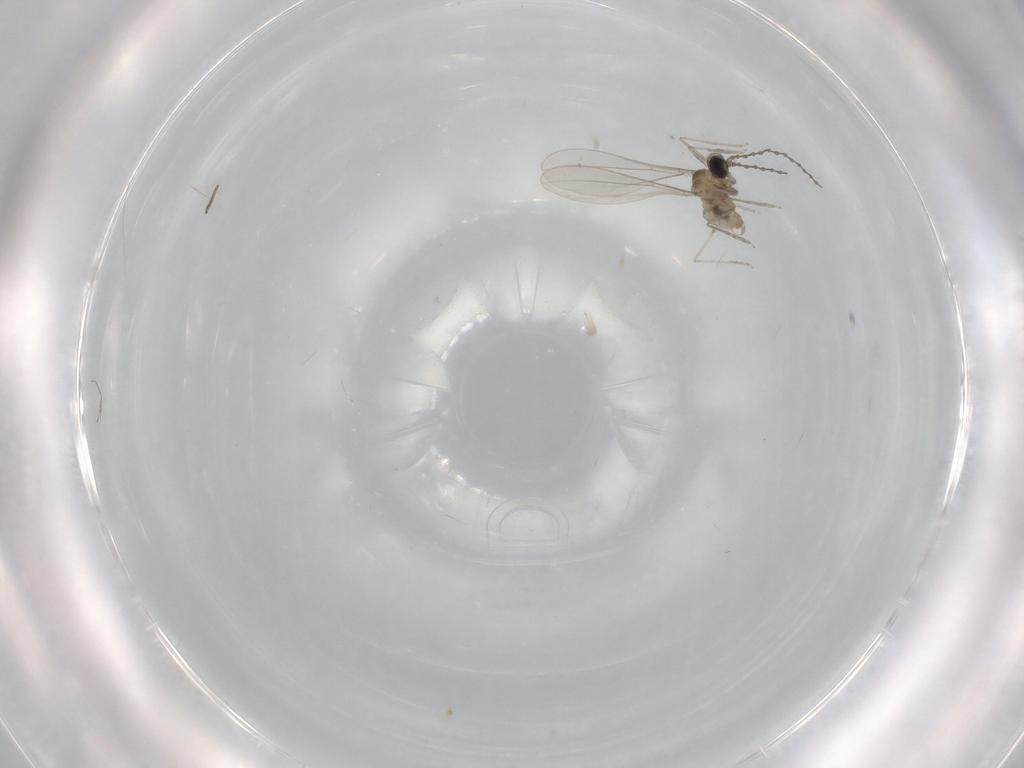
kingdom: Animalia
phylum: Arthropoda
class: Insecta
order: Diptera
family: Cecidomyiidae
